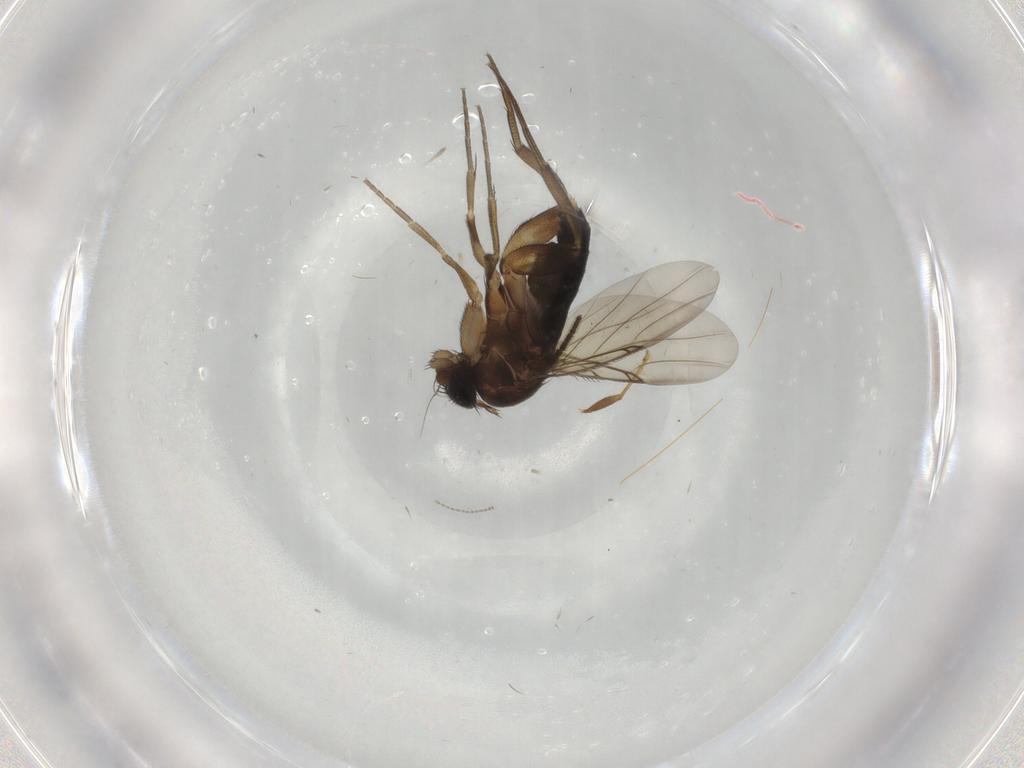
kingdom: Animalia
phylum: Arthropoda
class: Insecta
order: Diptera
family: Phoridae
